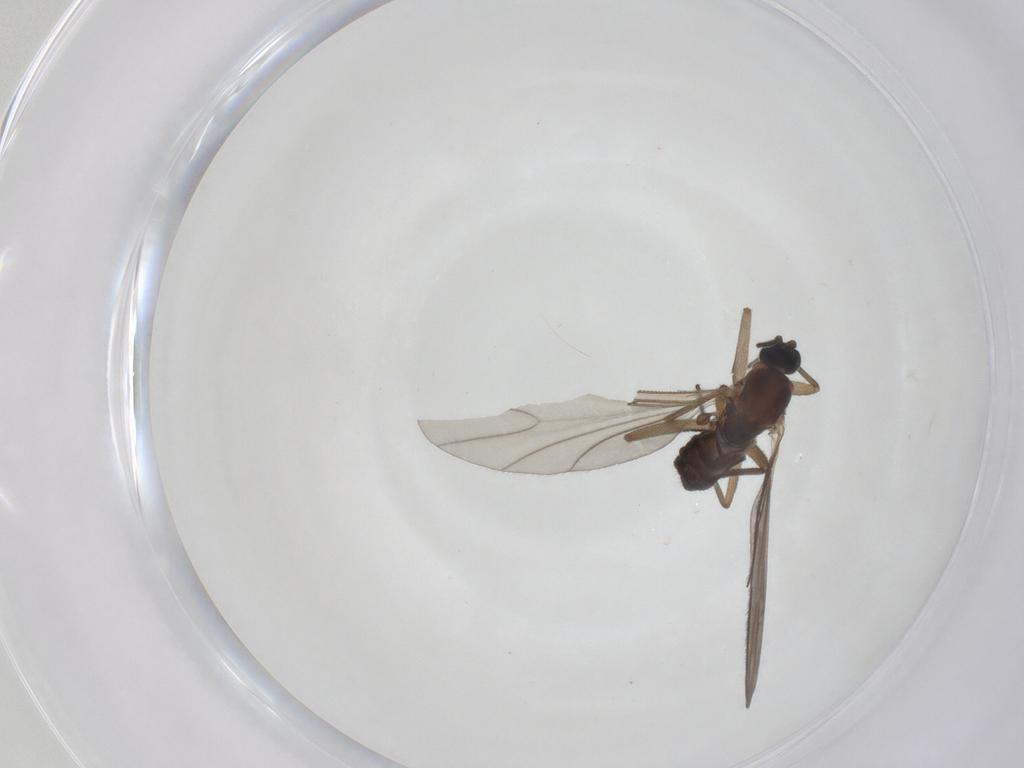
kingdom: Animalia
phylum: Arthropoda
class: Insecta
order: Diptera
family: Sciaridae
